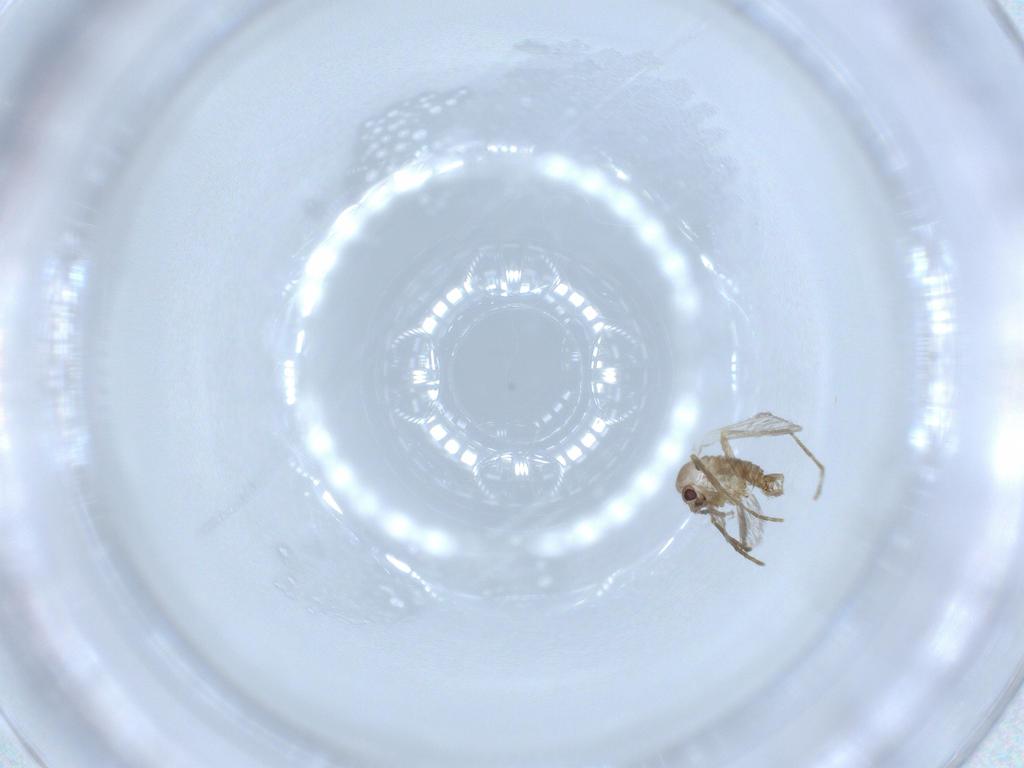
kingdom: Animalia
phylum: Arthropoda
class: Insecta
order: Diptera
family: Psychodidae
